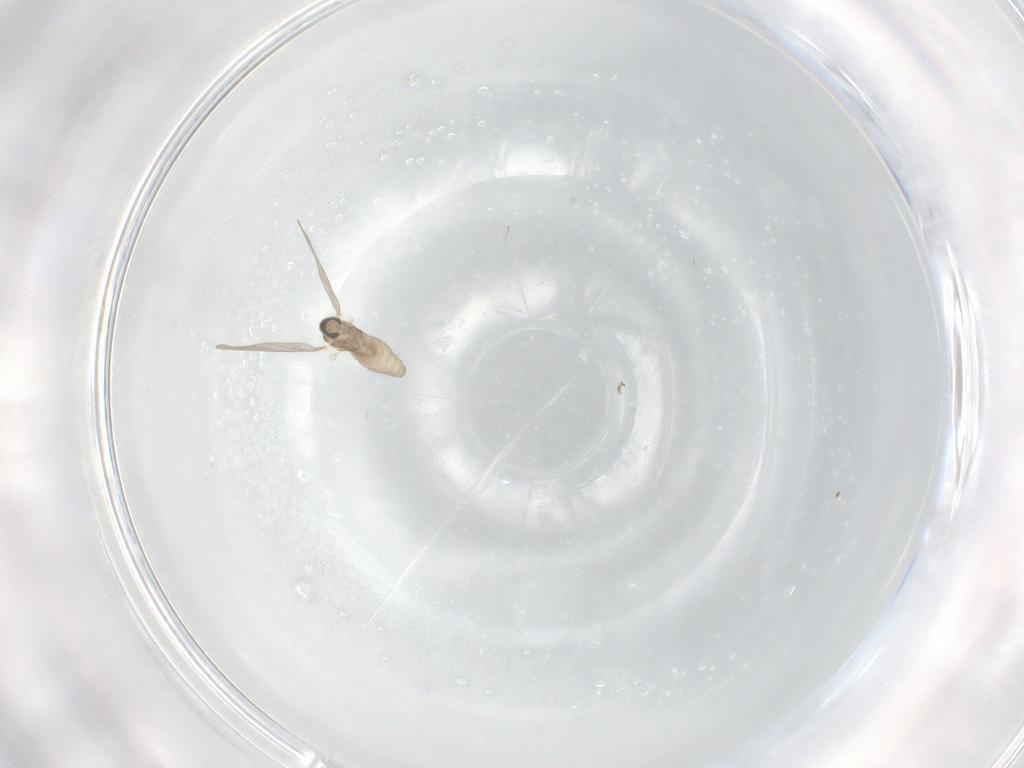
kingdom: Animalia
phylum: Arthropoda
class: Insecta
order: Diptera
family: Cecidomyiidae
